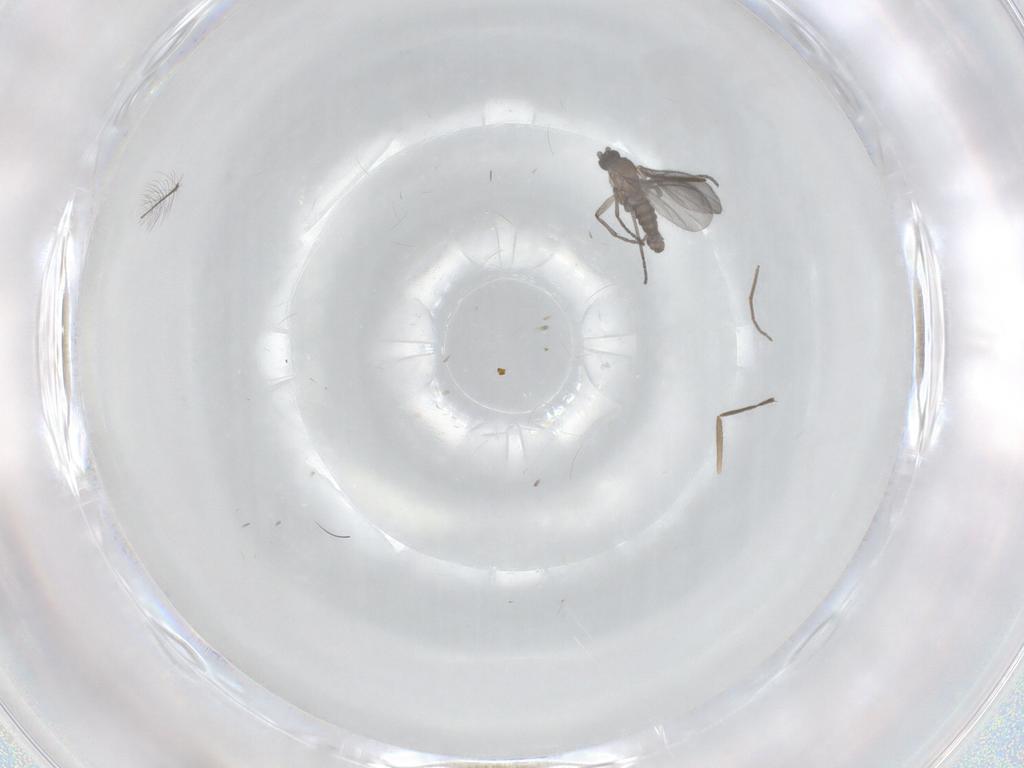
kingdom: Animalia
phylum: Arthropoda
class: Insecta
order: Diptera
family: Sciaridae
